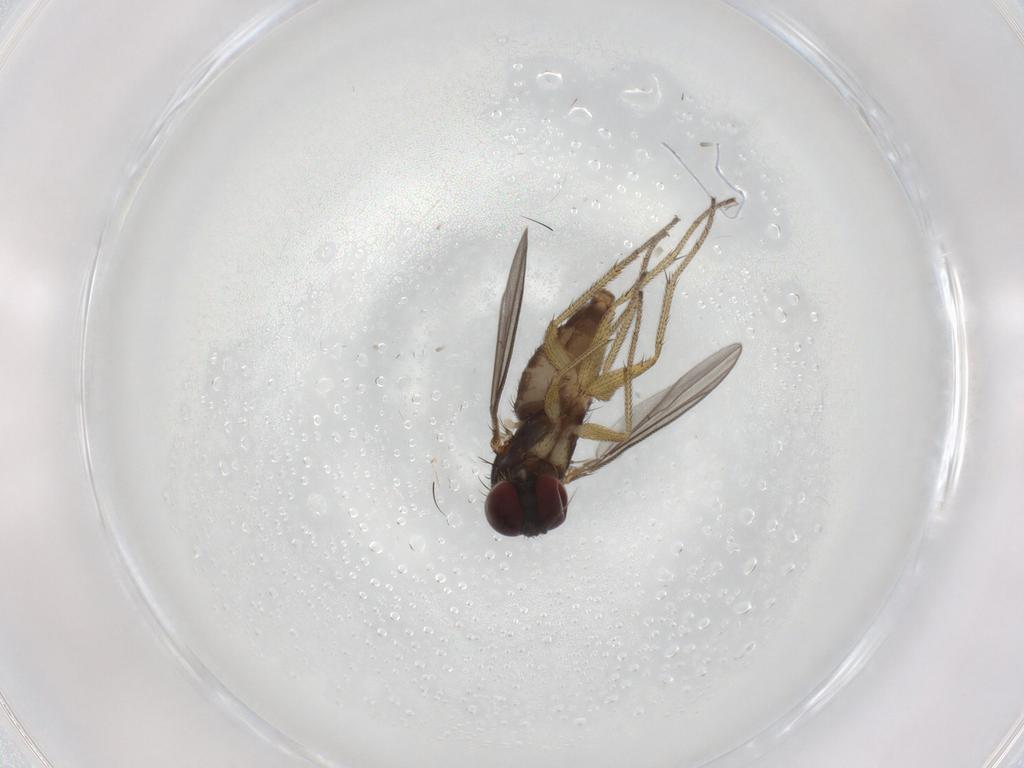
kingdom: Animalia
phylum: Arthropoda
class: Insecta
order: Diptera
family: Dolichopodidae
